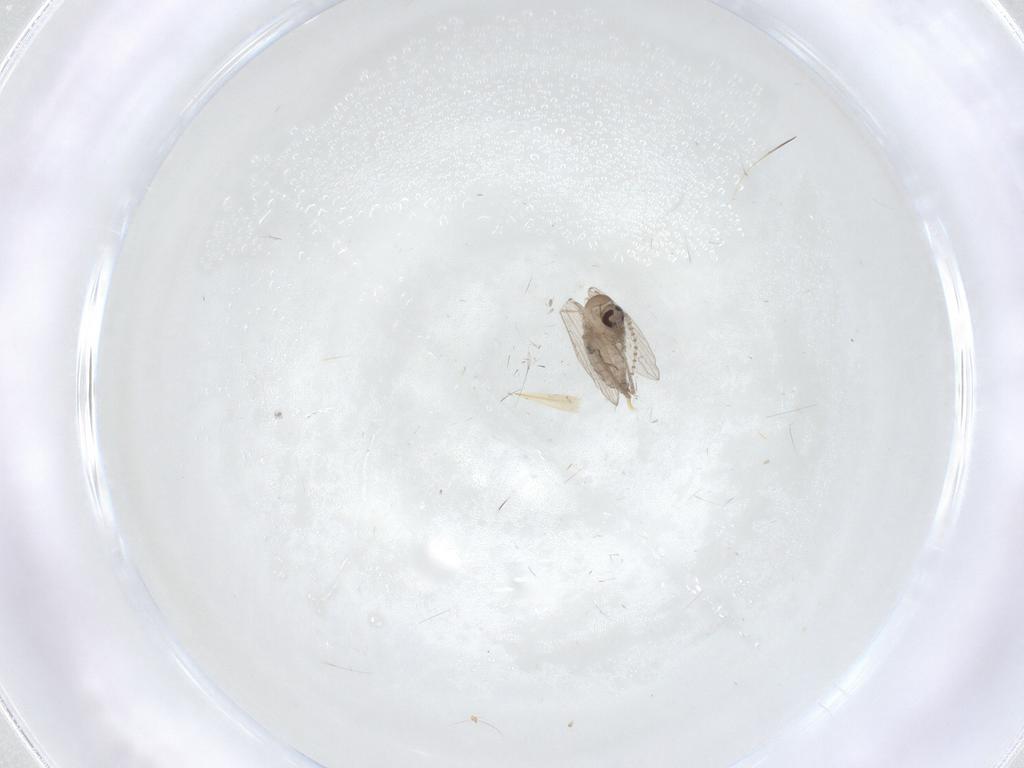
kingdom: Animalia
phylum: Arthropoda
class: Insecta
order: Diptera
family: Psychodidae
